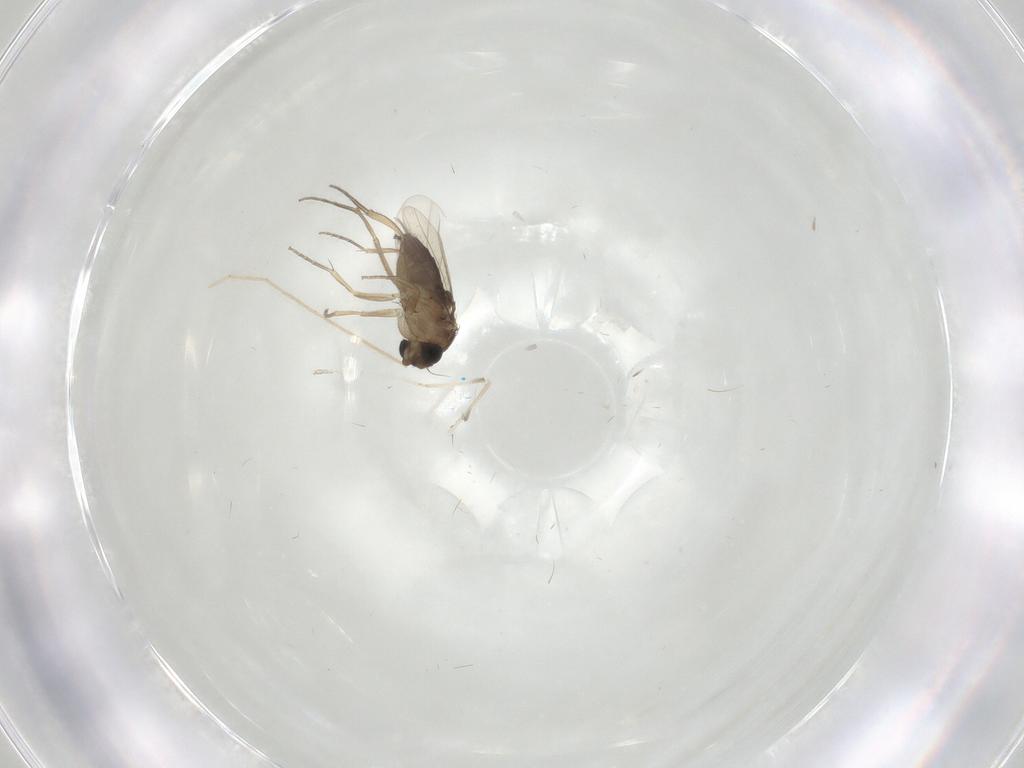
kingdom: Animalia
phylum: Arthropoda
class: Insecta
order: Diptera
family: Chironomidae
